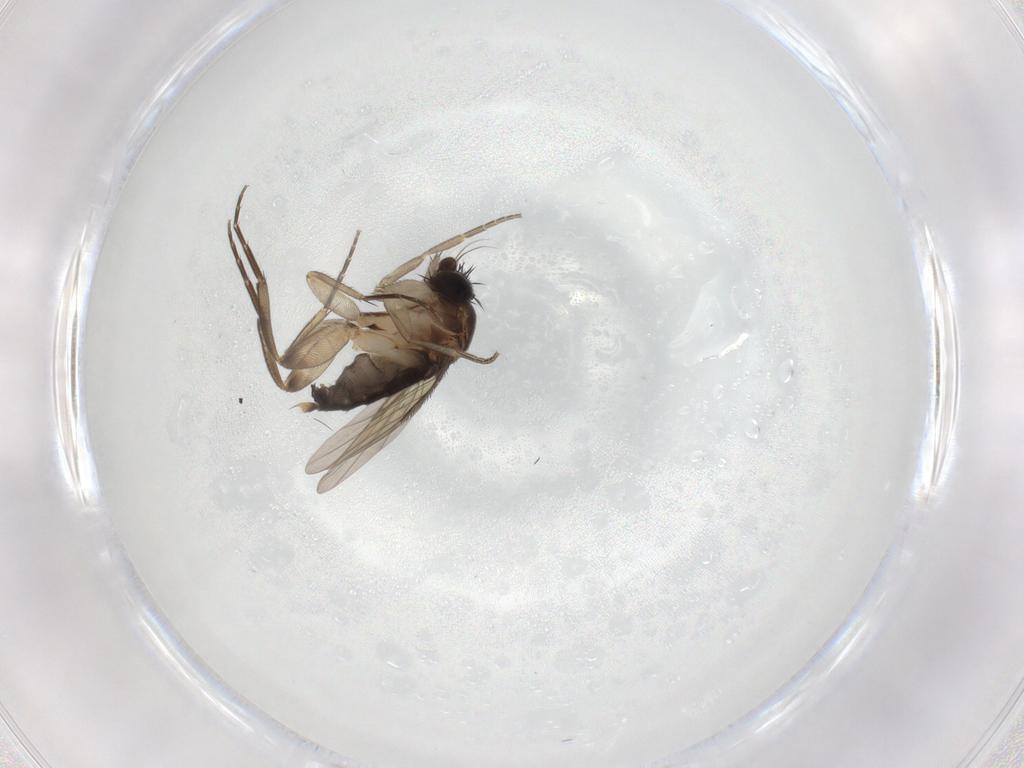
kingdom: Animalia
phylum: Arthropoda
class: Insecta
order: Diptera
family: Phoridae
